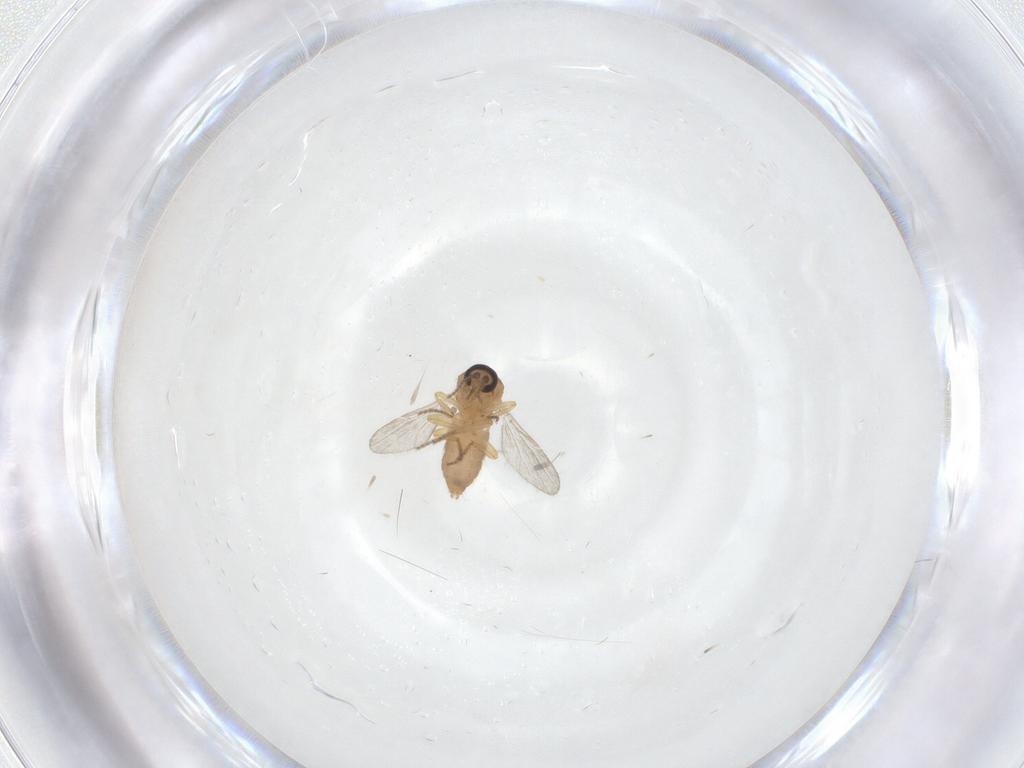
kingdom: Animalia
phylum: Arthropoda
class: Insecta
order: Diptera
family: Ceratopogonidae
